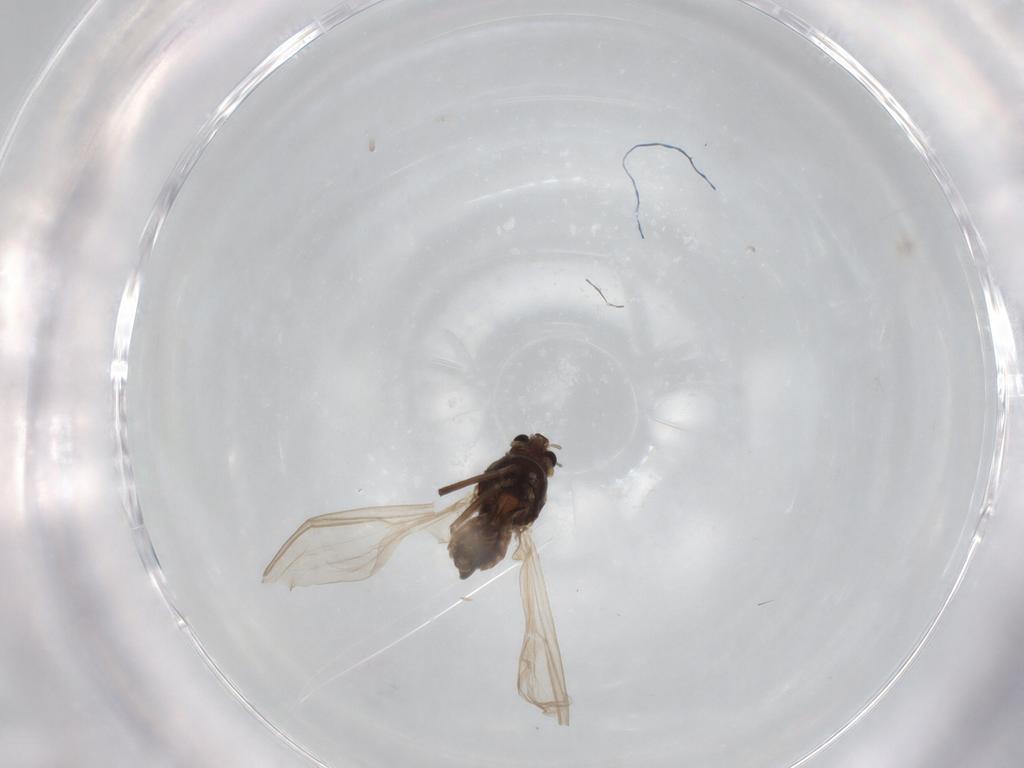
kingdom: Animalia
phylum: Arthropoda
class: Insecta
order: Diptera
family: Chironomidae
